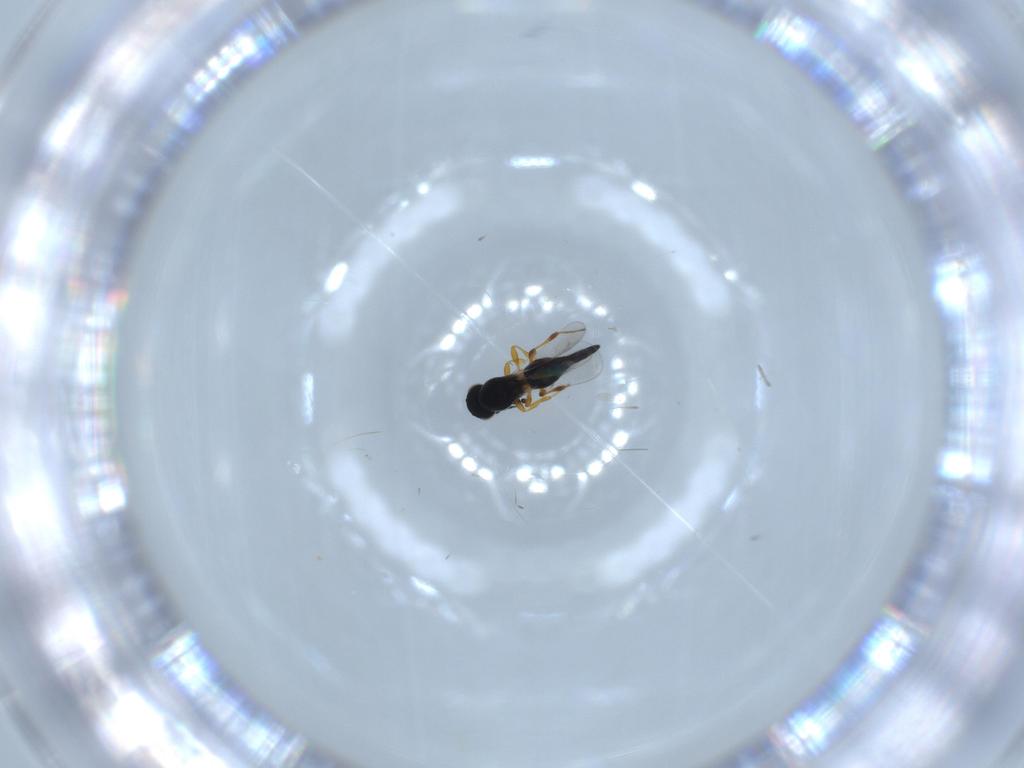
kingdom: Animalia
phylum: Arthropoda
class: Insecta
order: Hymenoptera
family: Platygastridae
